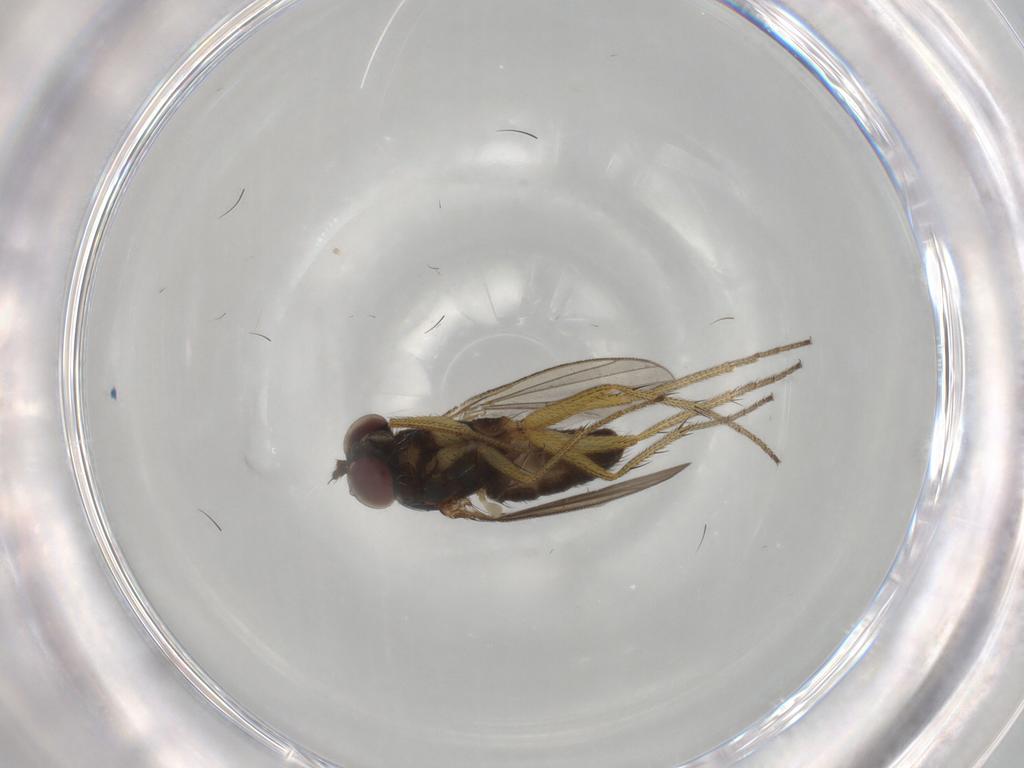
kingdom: Animalia
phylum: Arthropoda
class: Insecta
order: Diptera
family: Dolichopodidae
